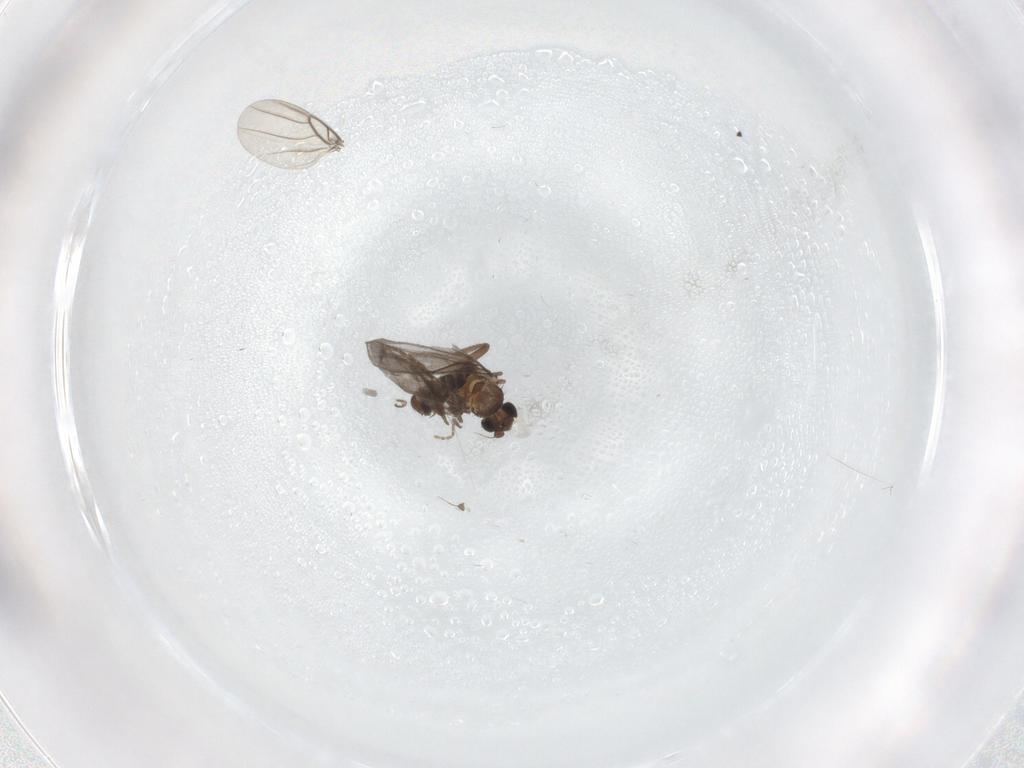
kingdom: Animalia
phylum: Arthropoda
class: Insecta
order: Diptera
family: Cecidomyiidae
